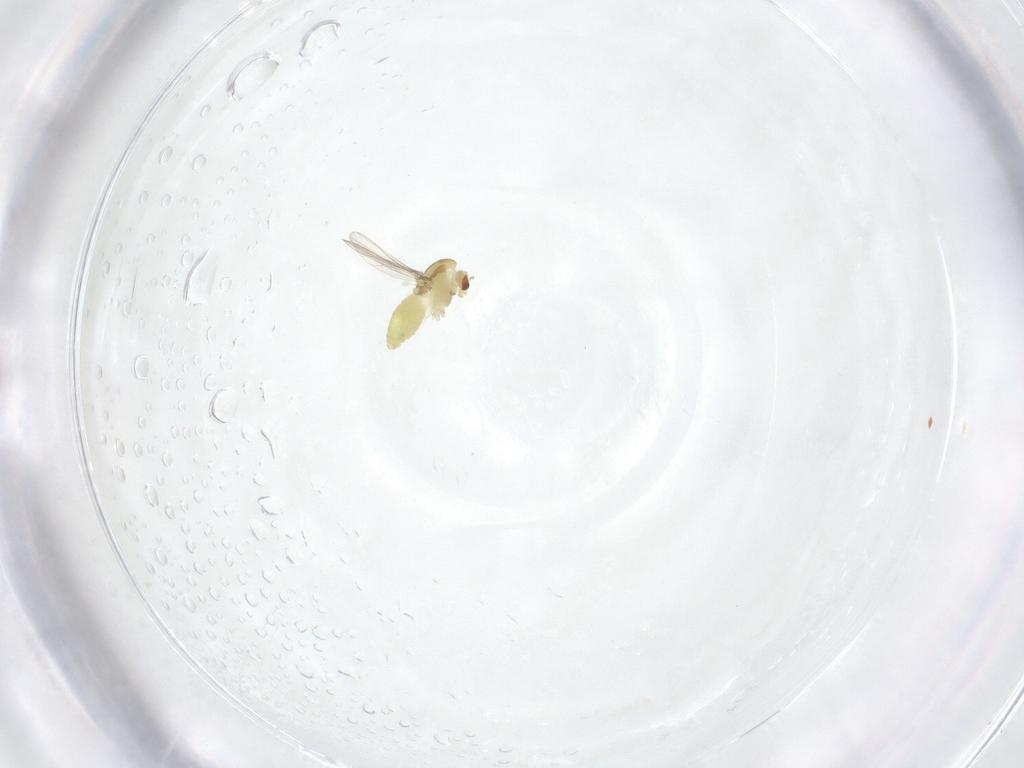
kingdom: Animalia
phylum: Arthropoda
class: Insecta
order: Diptera
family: Chironomidae
